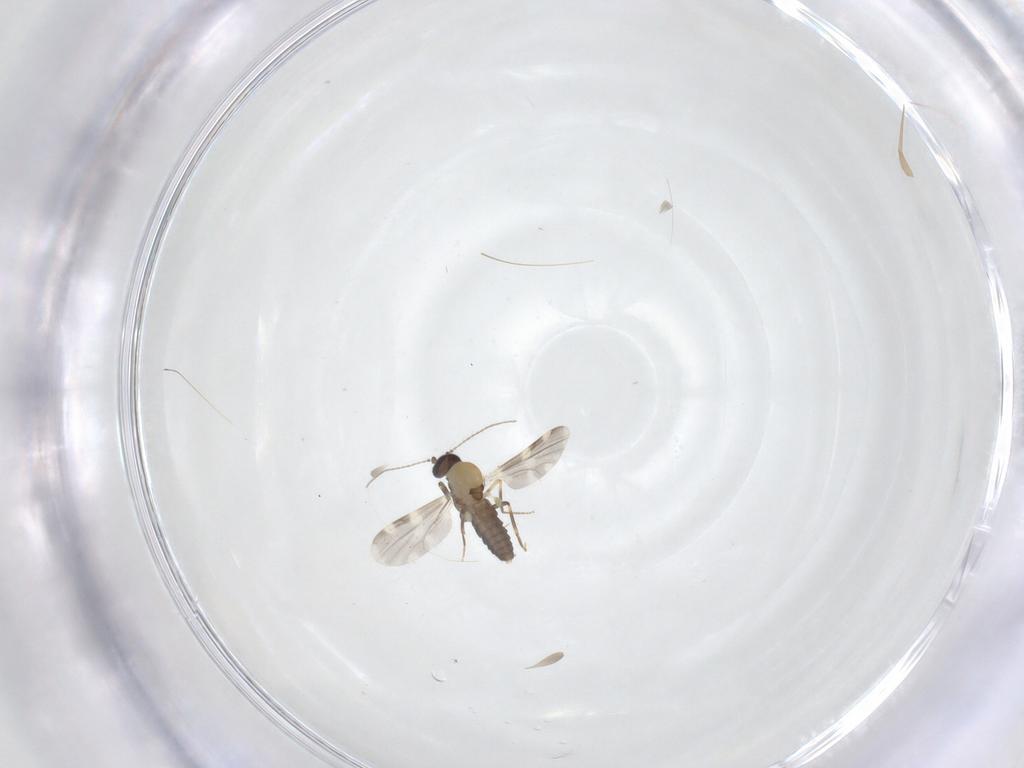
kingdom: Animalia
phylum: Arthropoda
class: Insecta
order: Diptera
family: Ceratopogonidae
